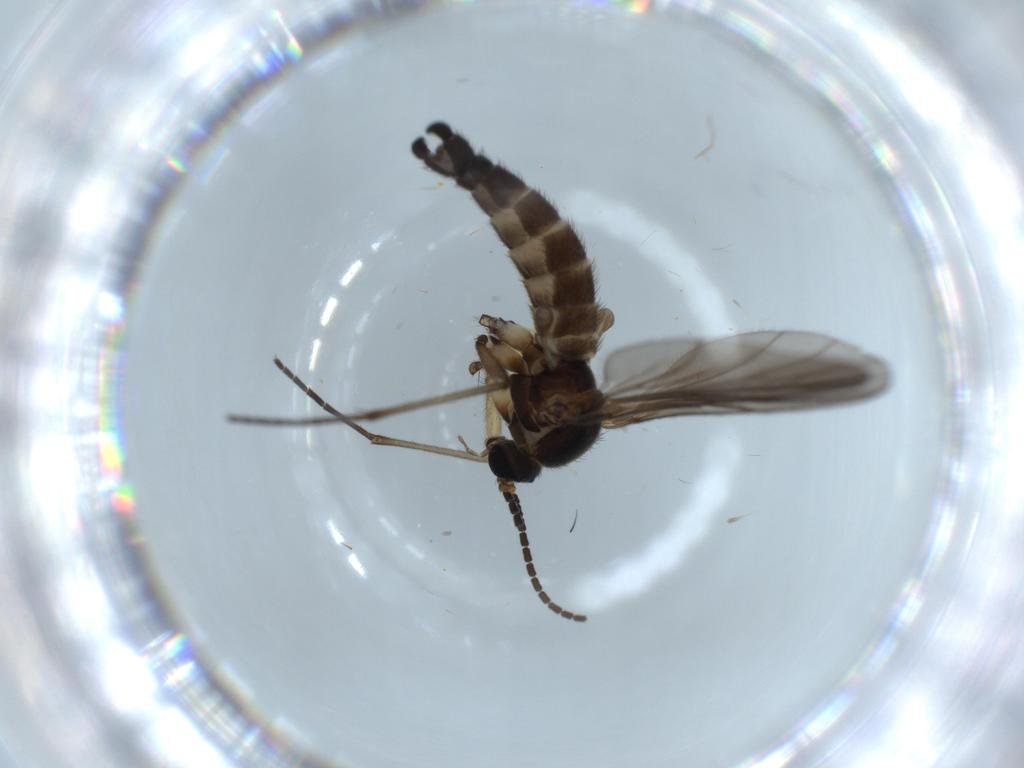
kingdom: Animalia
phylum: Arthropoda
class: Insecta
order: Diptera
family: Sciaridae
